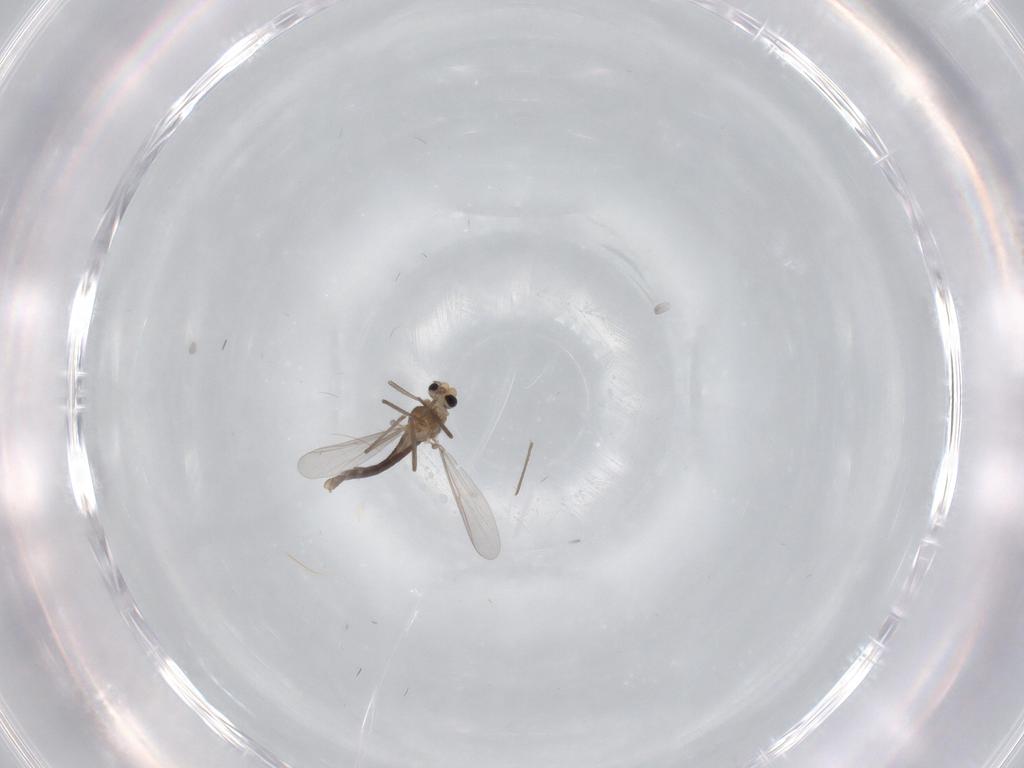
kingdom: Animalia
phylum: Arthropoda
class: Insecta
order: Diptera
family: Chironomidae
